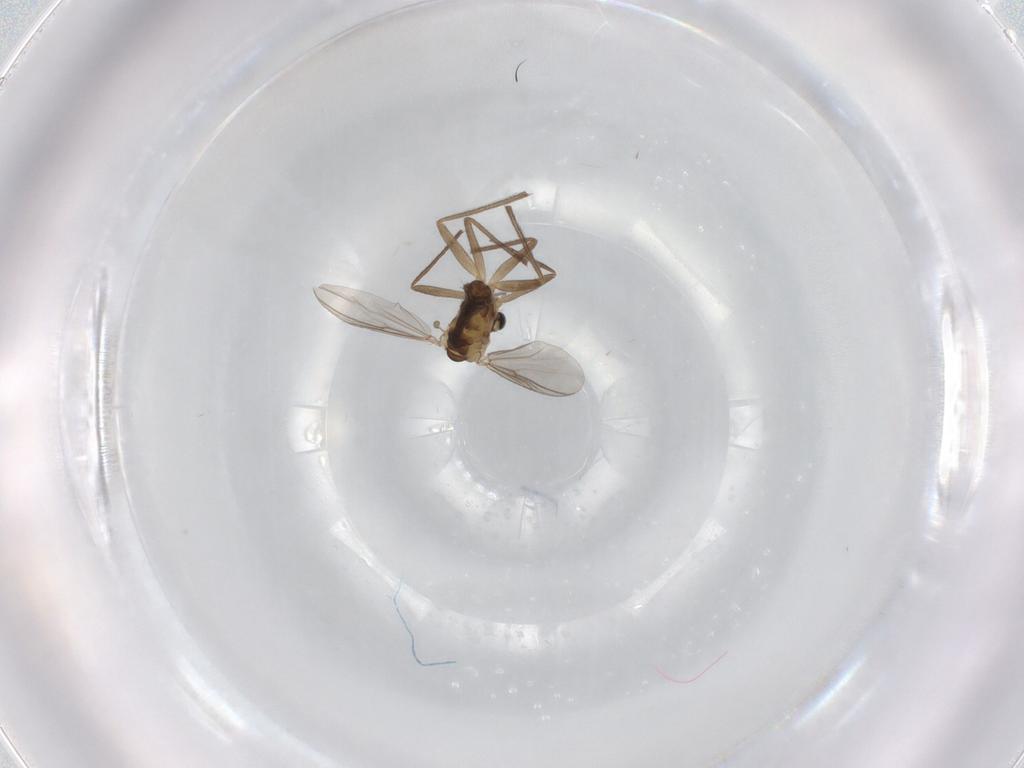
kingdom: Animalia
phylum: Arthropoda
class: Insecta
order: Diptera
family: Chironomidae
